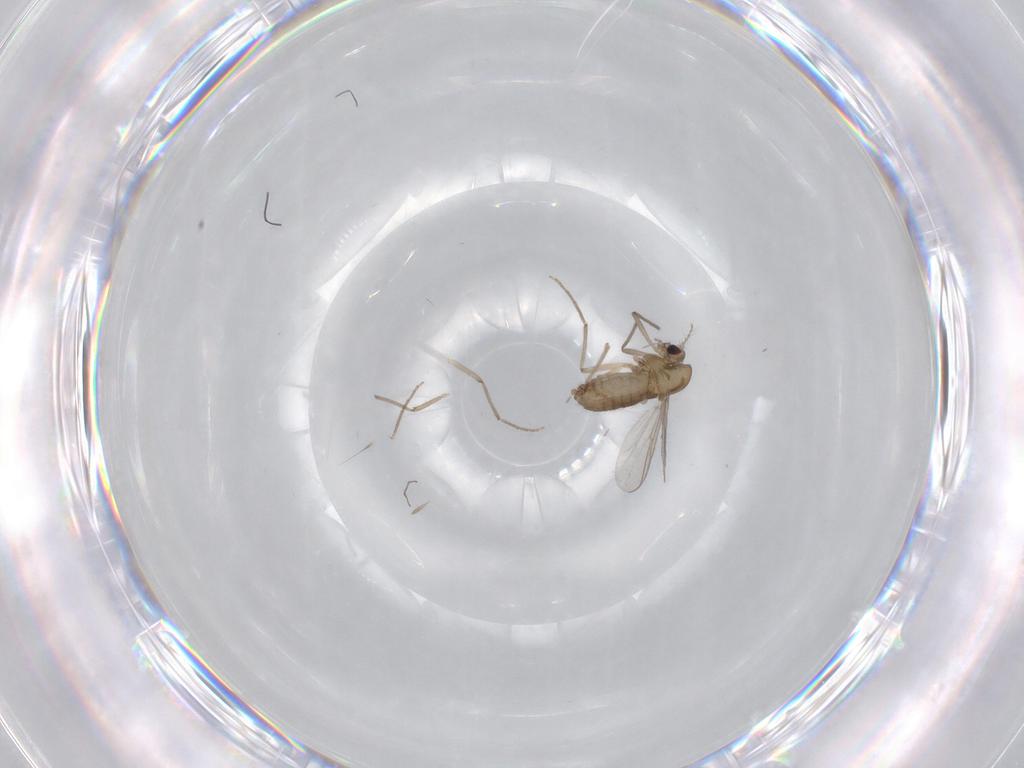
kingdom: Animalia
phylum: Arthropoda
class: Insecta
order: Diptera
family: Chironomidae
